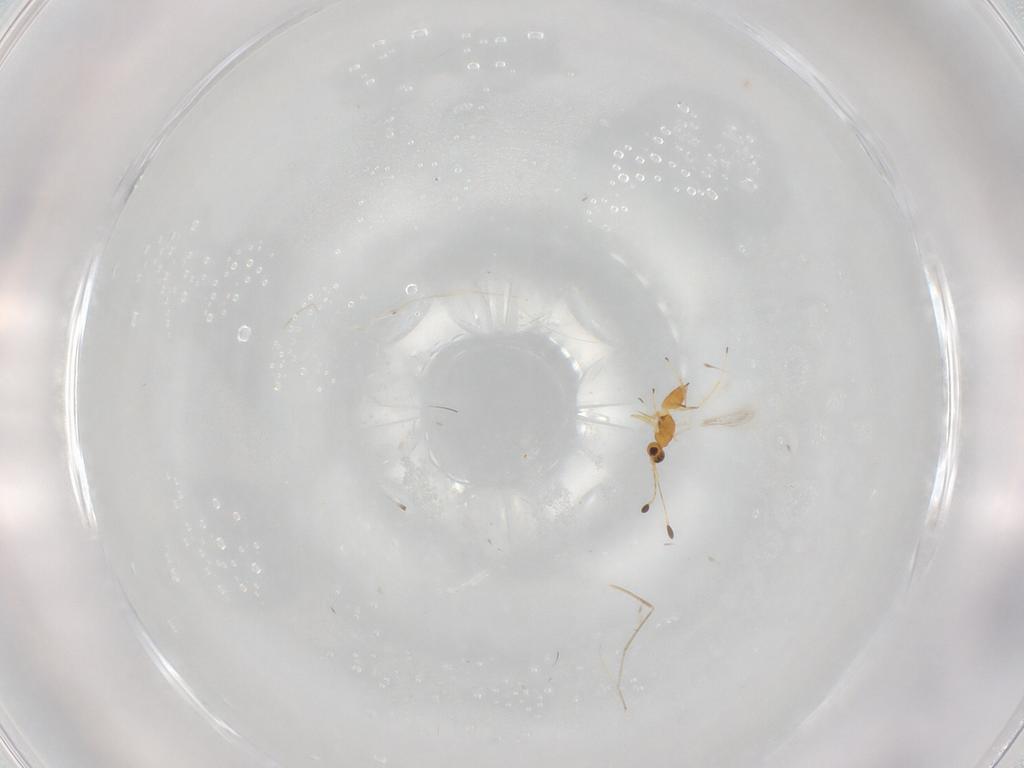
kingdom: Animalia
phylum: Arthropoda
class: Insecta
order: Hymenoptera
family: Mymaridae
